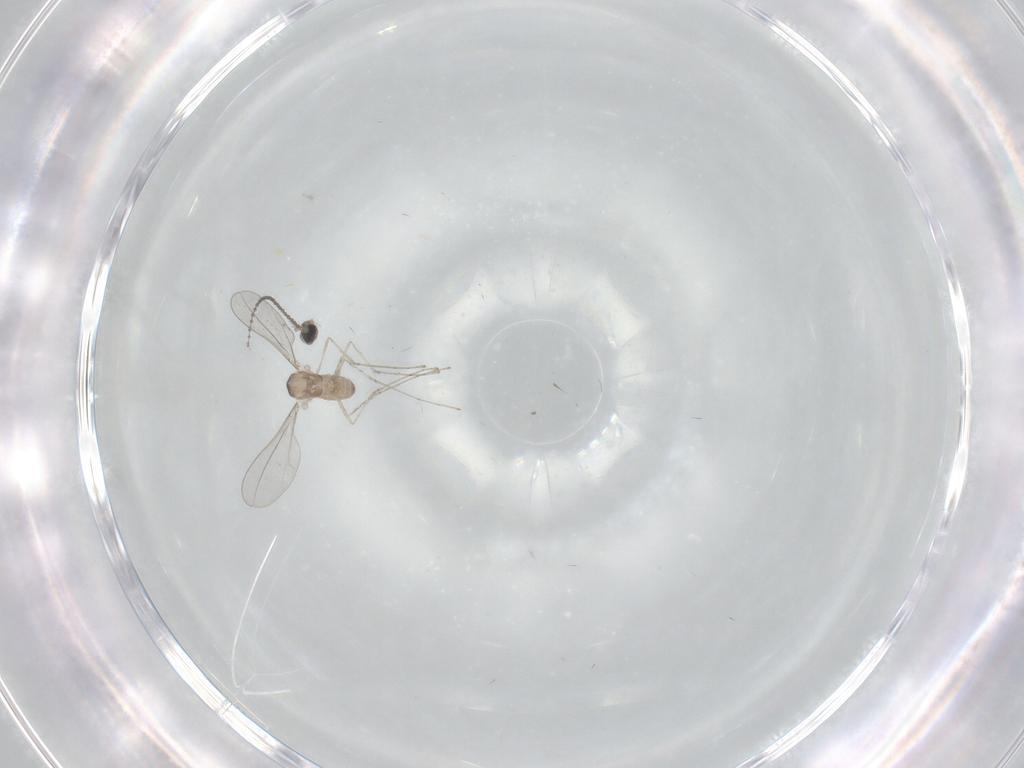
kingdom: Animalia
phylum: Arthropoda
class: Insecta
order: Diptera
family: Cecidomyiidae
